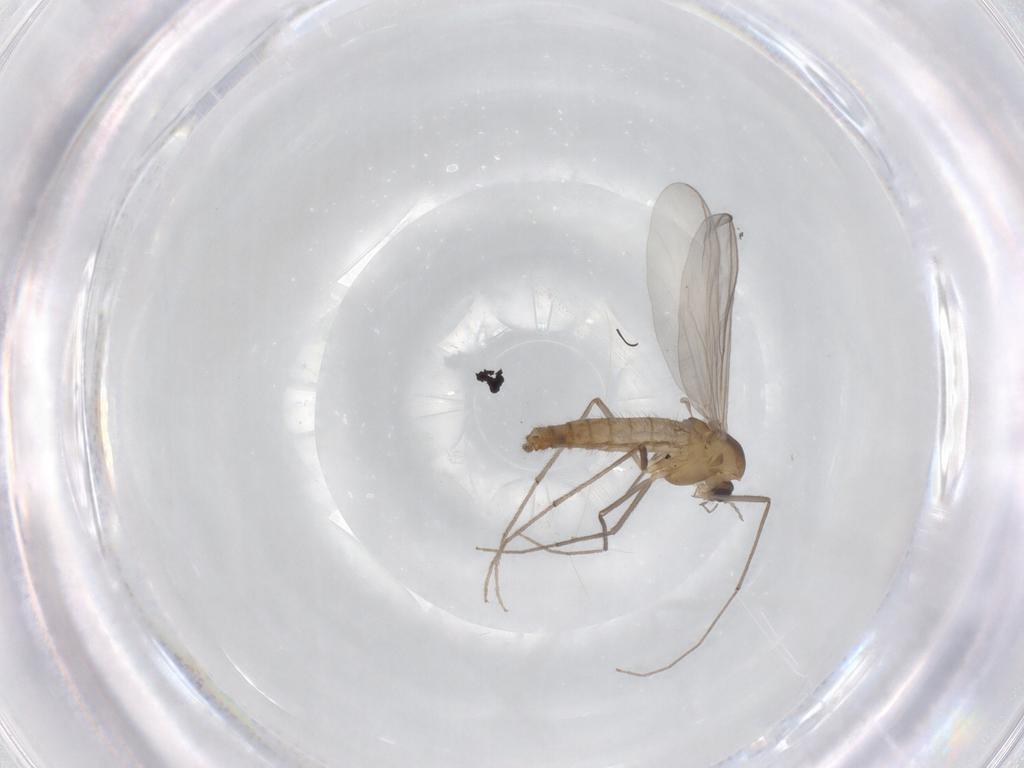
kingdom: Animalia
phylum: Arthropoda
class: Insecta
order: Diptera
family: Chironomidae
